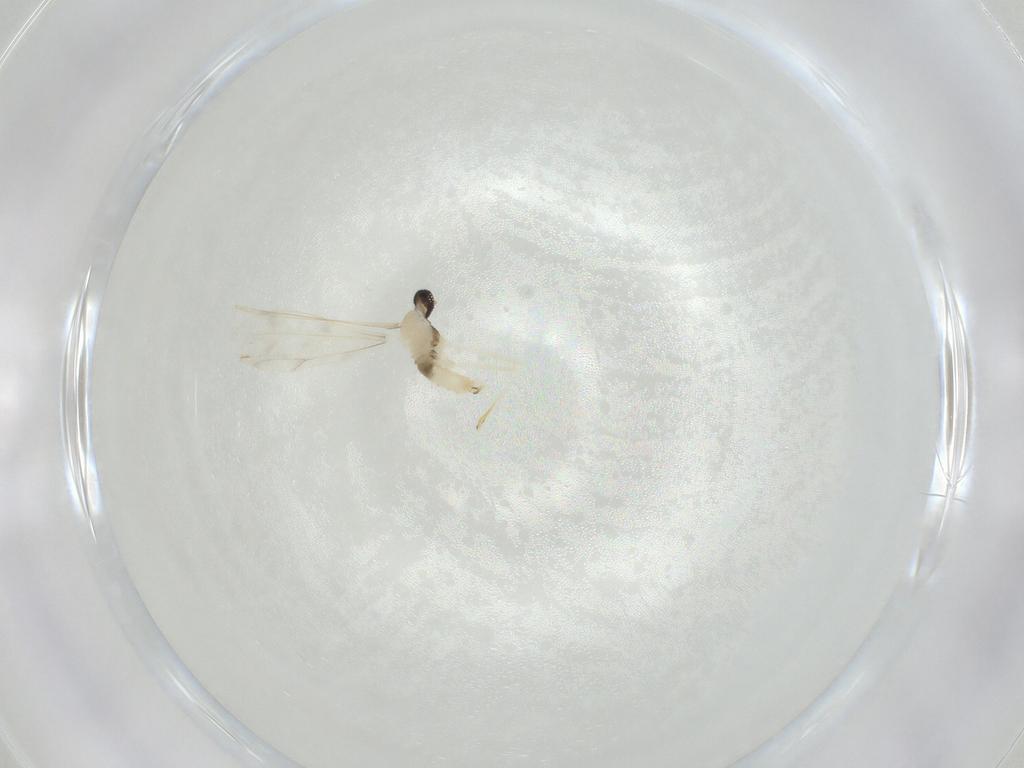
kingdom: Animalia
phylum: Arthropoda
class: Insecta
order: Diptera
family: Cecidomyiidae
